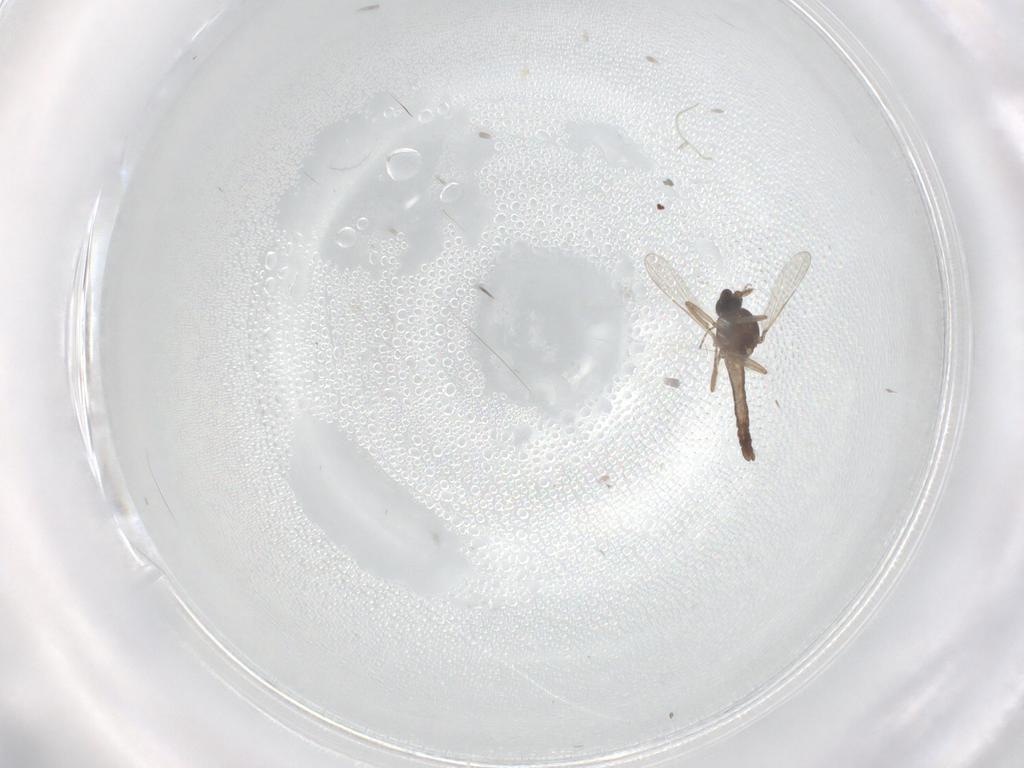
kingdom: Animalia
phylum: Arthropoda
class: Insecta
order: Diptera
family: Ceratopogonidae
